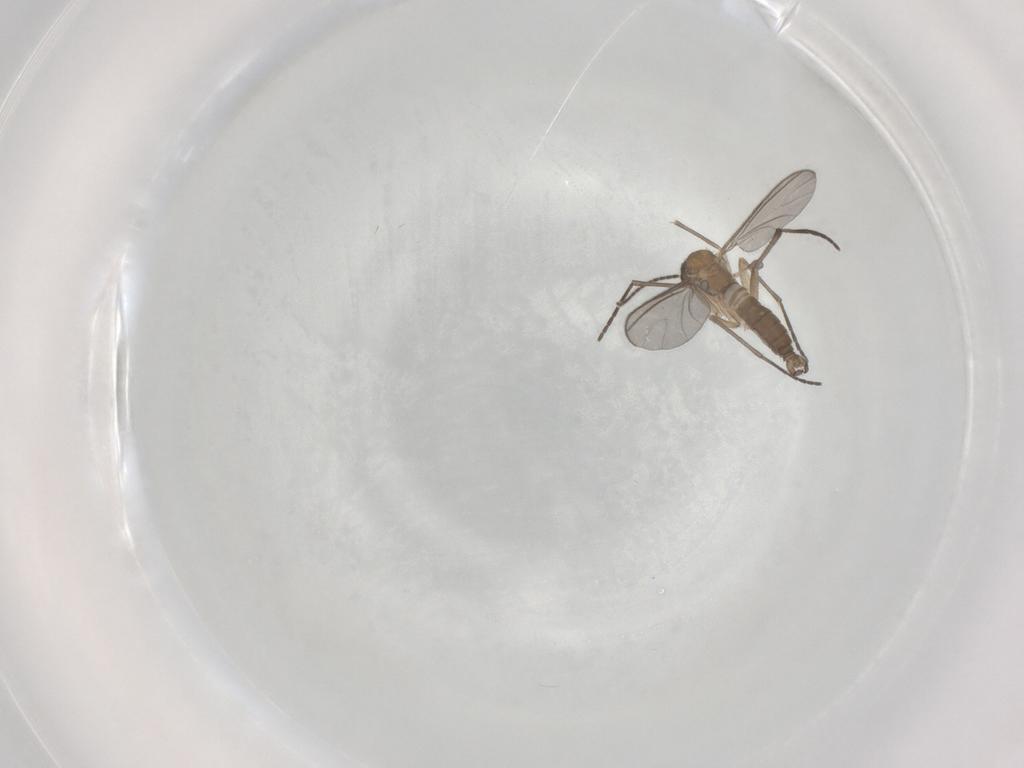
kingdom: Animalia
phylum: Arthropoda
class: Insecta
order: Diptera
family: Sciaridae
